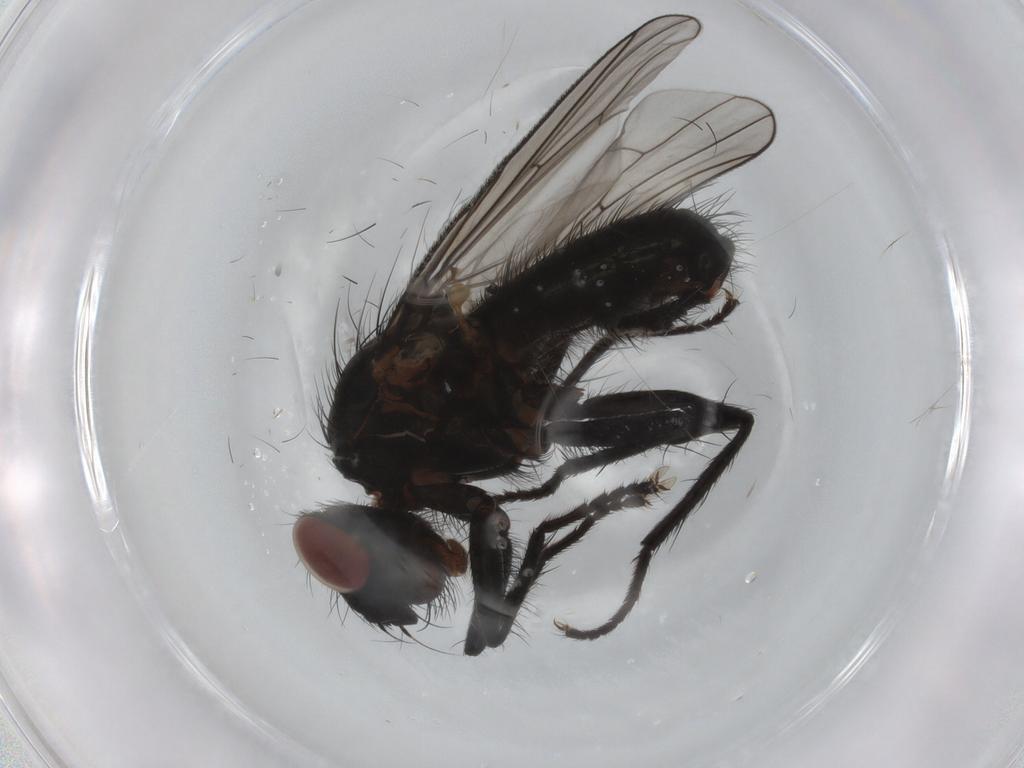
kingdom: Animalia
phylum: Arthropoda
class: Insecta
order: Diptera
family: Anthomyiidae
